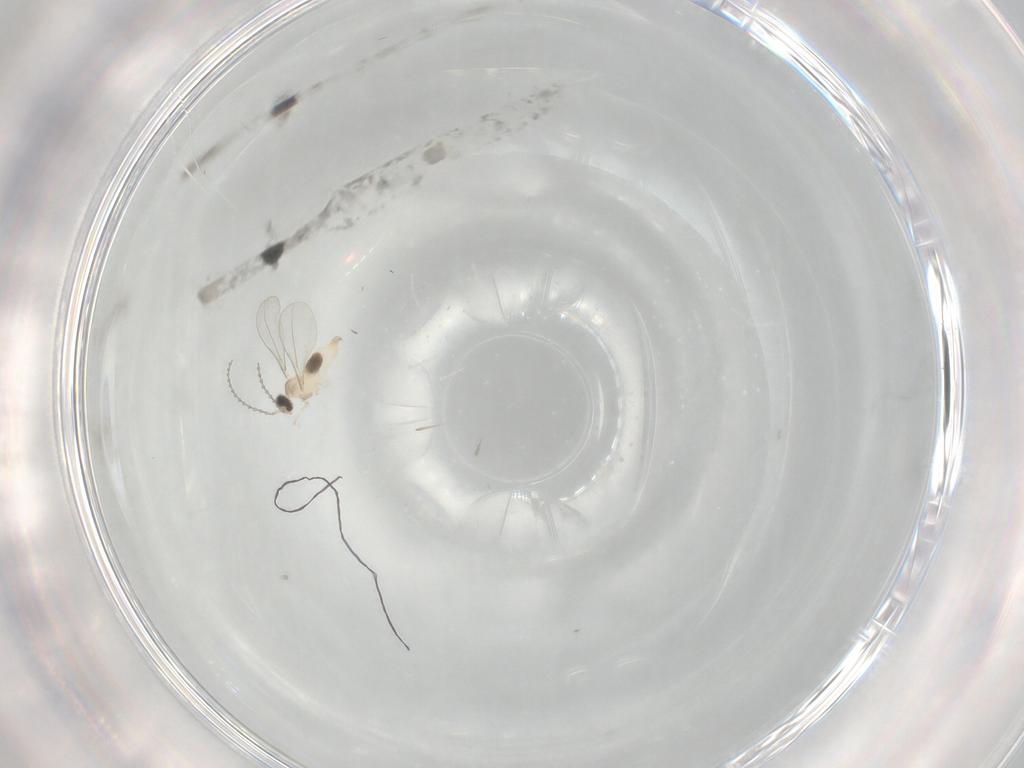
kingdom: Animalia
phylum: Arthropoda
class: Insecta
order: Diptera
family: Cecidomyiidae
